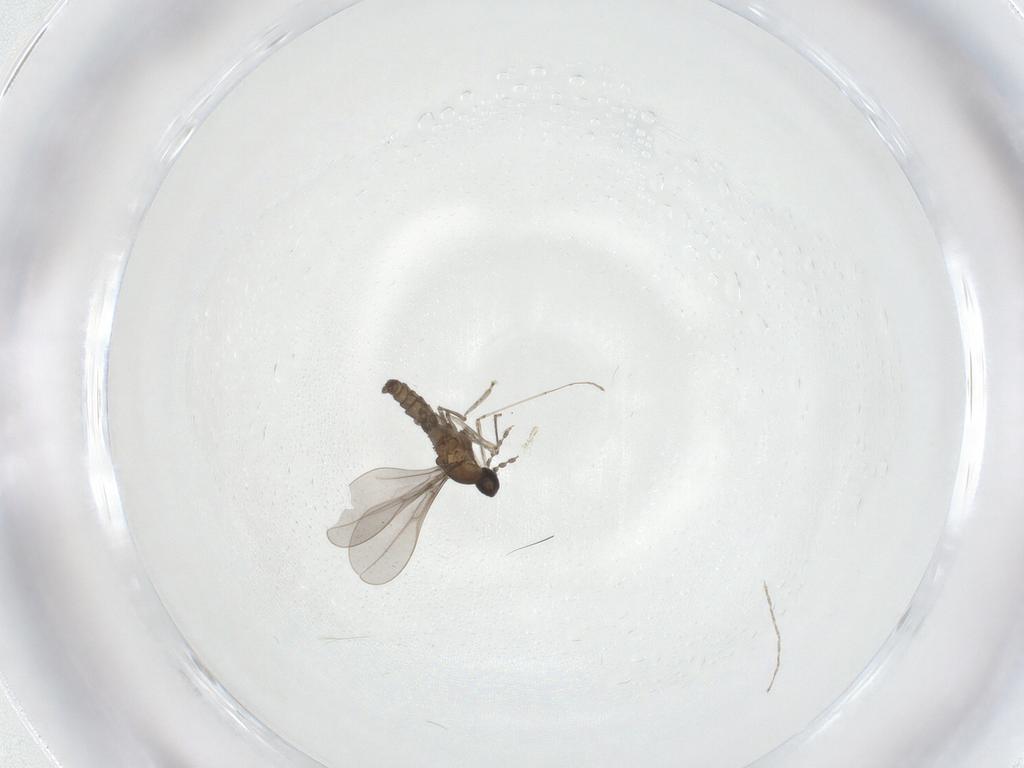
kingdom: Animalia
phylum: Arthropoda
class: Insecta
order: Diptera
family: Cecidomyiidae
